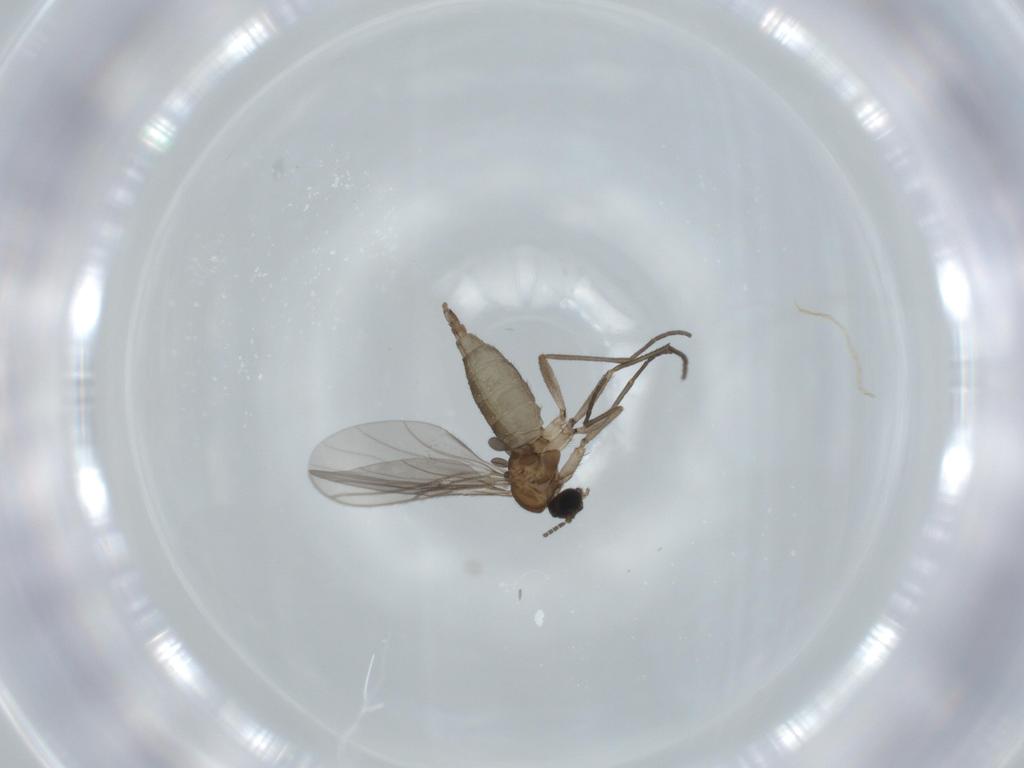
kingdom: Animalia
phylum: Arthropoda
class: Insecta
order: Diptera
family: Sciaridae
